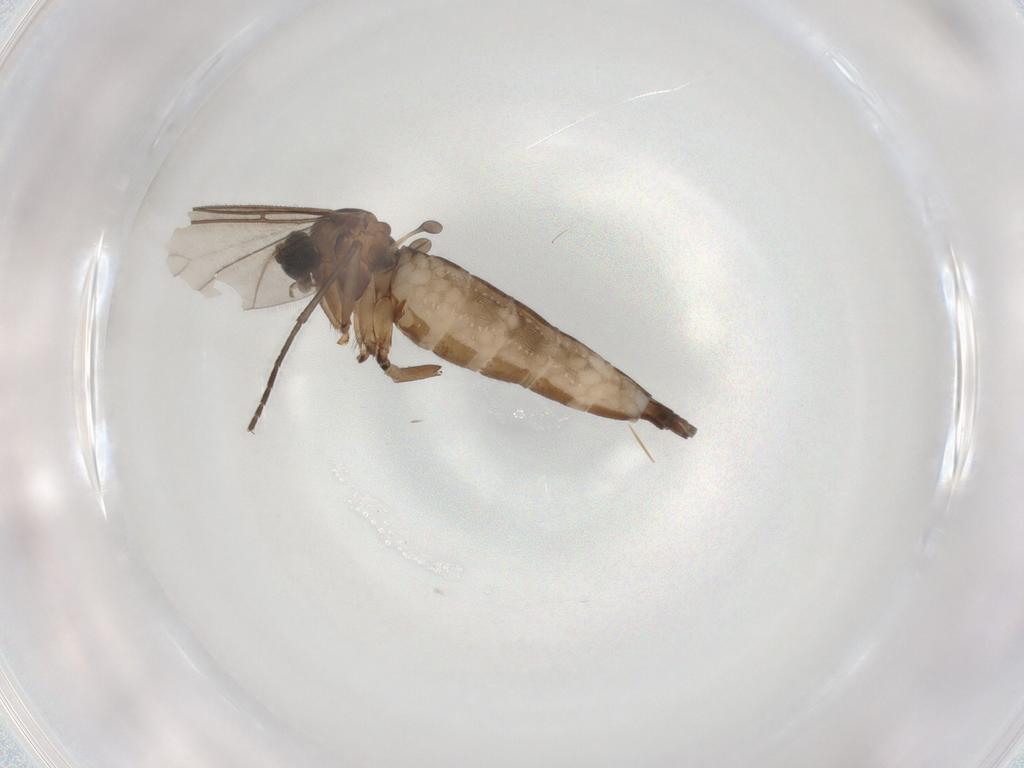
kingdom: Animalia
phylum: Arthropoda
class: Insecta
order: Diptera
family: Sciaridae
